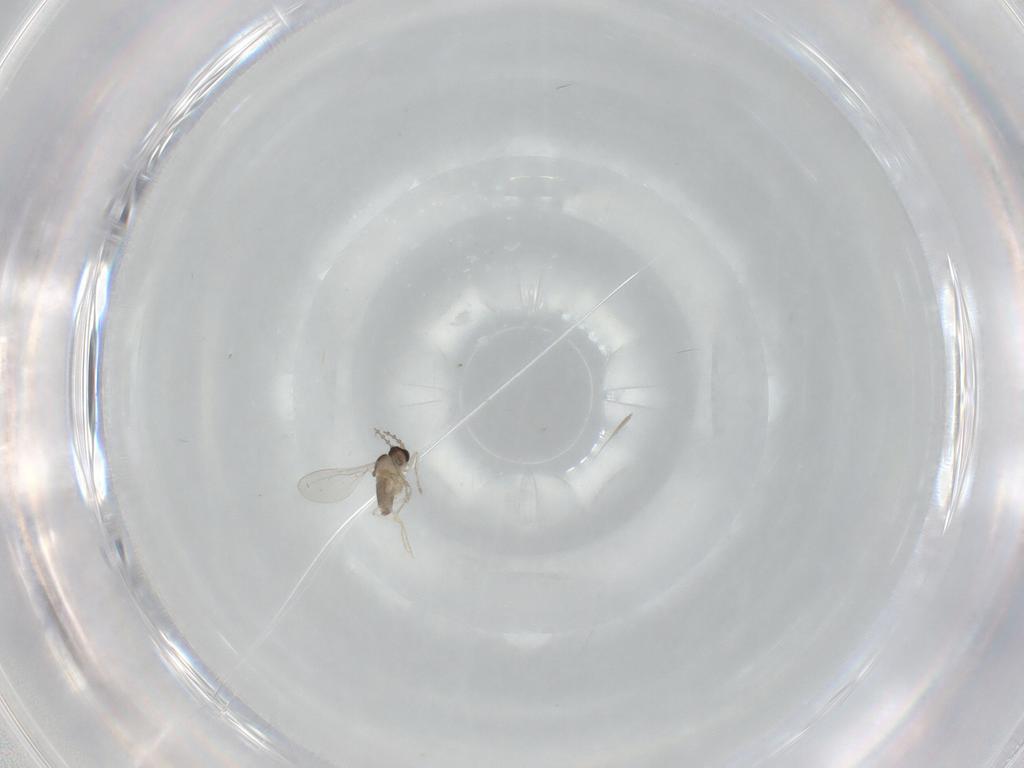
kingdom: Animalia
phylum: Arthropoda
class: Insecta
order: Diptera
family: Cecidomyiidae
